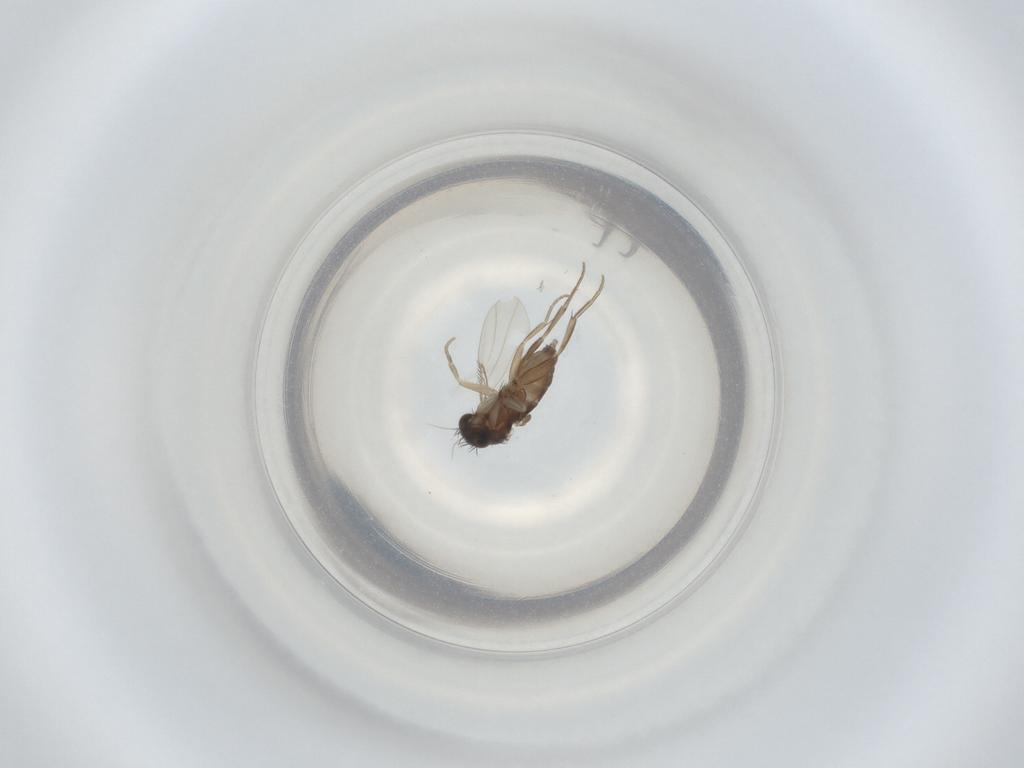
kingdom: Animalia
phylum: Arthropoda
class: Insecta
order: Diptera
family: Phoridae
